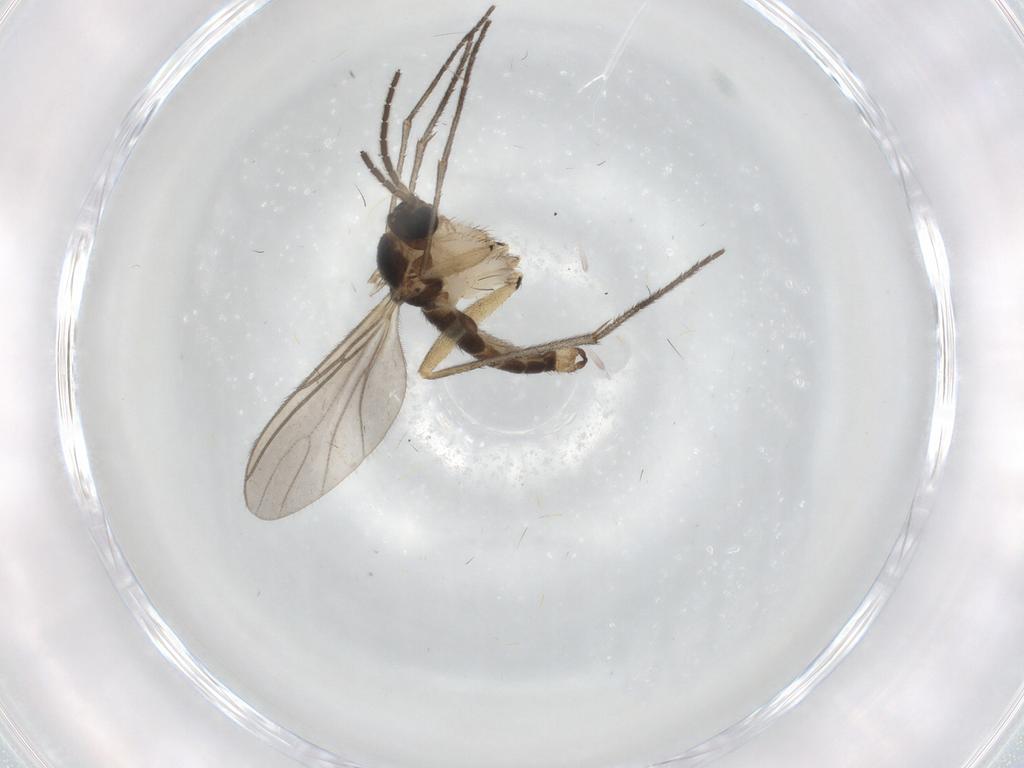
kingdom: Animalia
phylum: Arthropoda
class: Insecta
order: Diptera
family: Sciaridae
